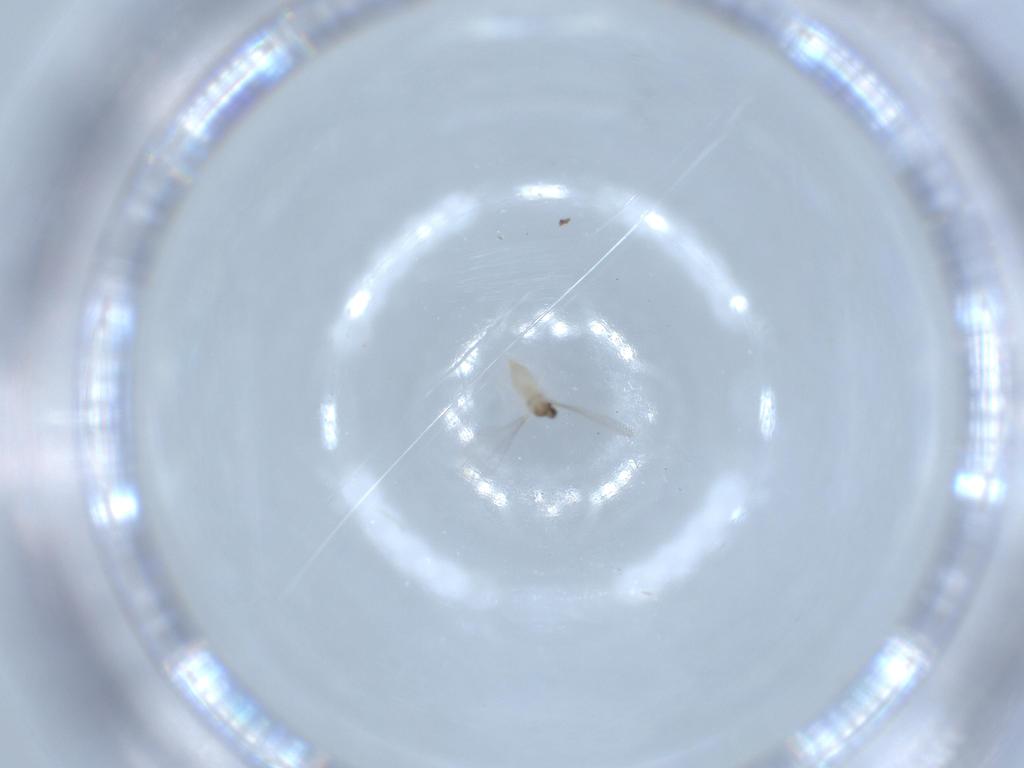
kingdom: Animalia
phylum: Arthropoda
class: Insecta
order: Diptera
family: Cecidomyiidae
